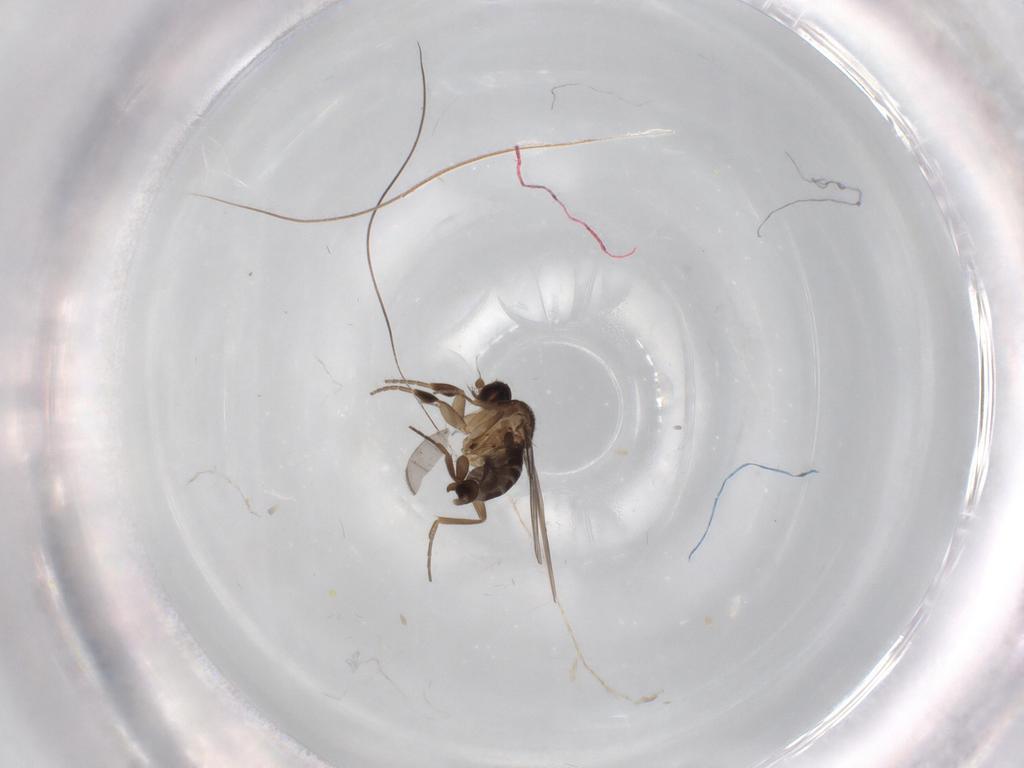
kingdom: Animalia
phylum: Arthropoda
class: Insecta
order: Diptera
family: Phoridae
